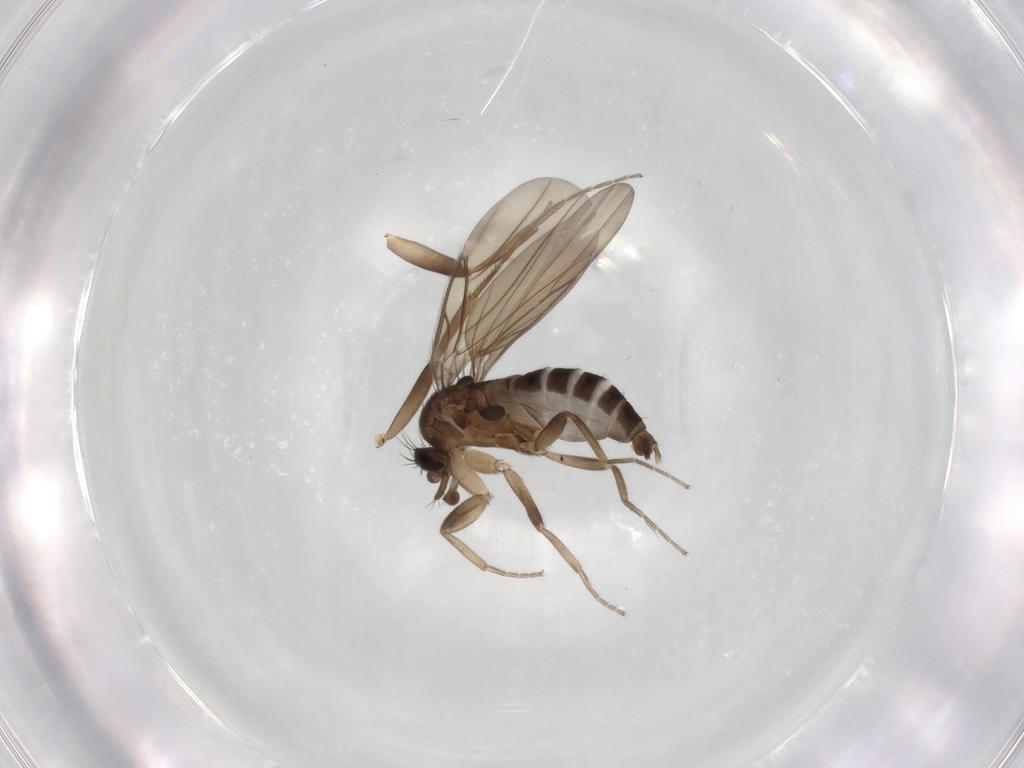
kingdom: Animalia
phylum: Arthropoda
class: Insecta
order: Diptera
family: Phoridae
